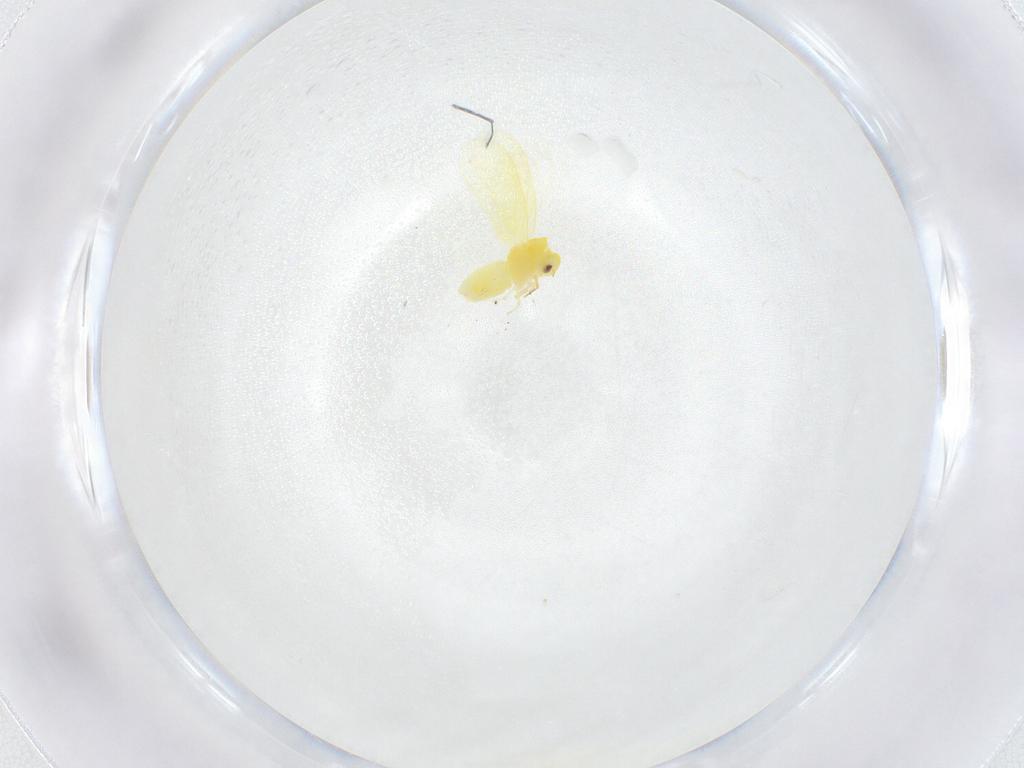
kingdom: Animalia
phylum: Arthropoda
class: Insecta
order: Hemiptera
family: Aleyrodidae
